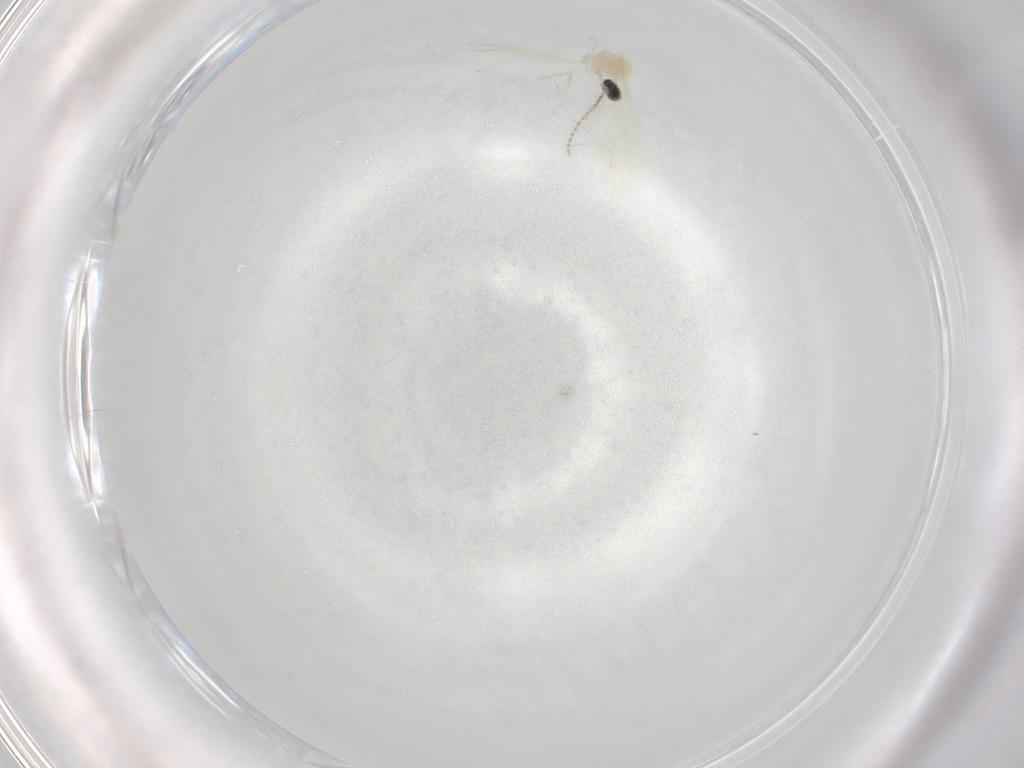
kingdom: Animalia
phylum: Arthropoda
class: Insecta
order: Diptera
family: Cecidomyiidae
